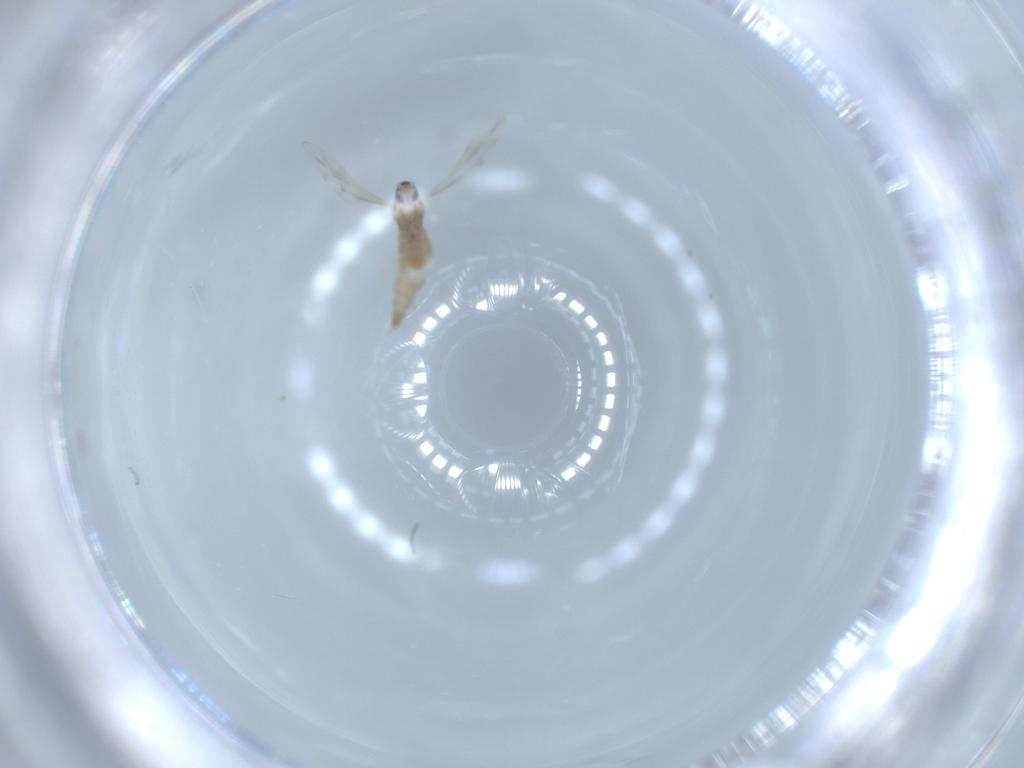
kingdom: Animalia
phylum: Arthropoda
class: Insecta
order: Diptera
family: Cecidomyiidae
